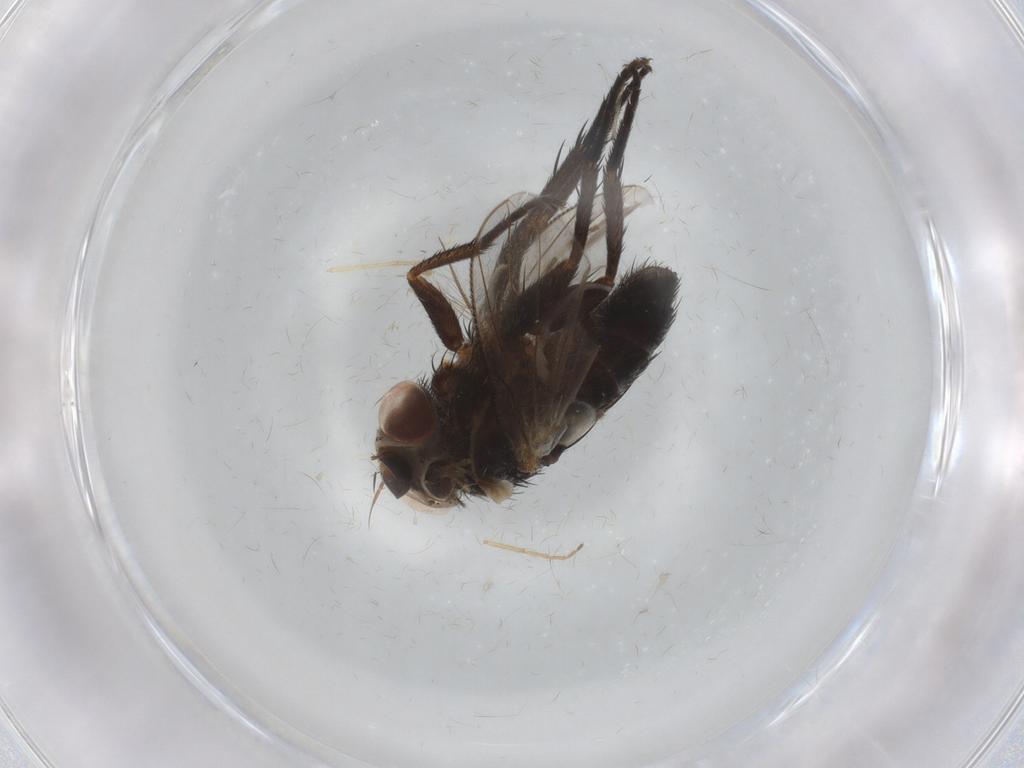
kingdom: Animalia
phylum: Arthropoda
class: Insecta
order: Diptera
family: Tachinidae
